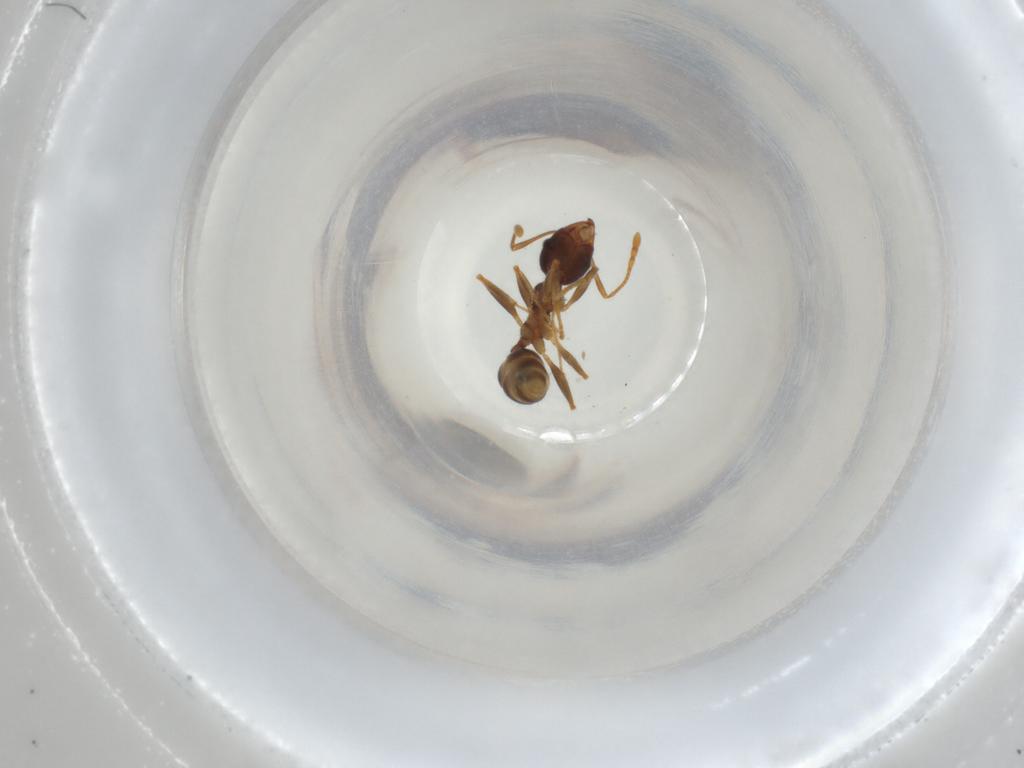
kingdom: Animalia
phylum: Arthropoda
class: Insecta
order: Hymenoptera
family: Formicidae
